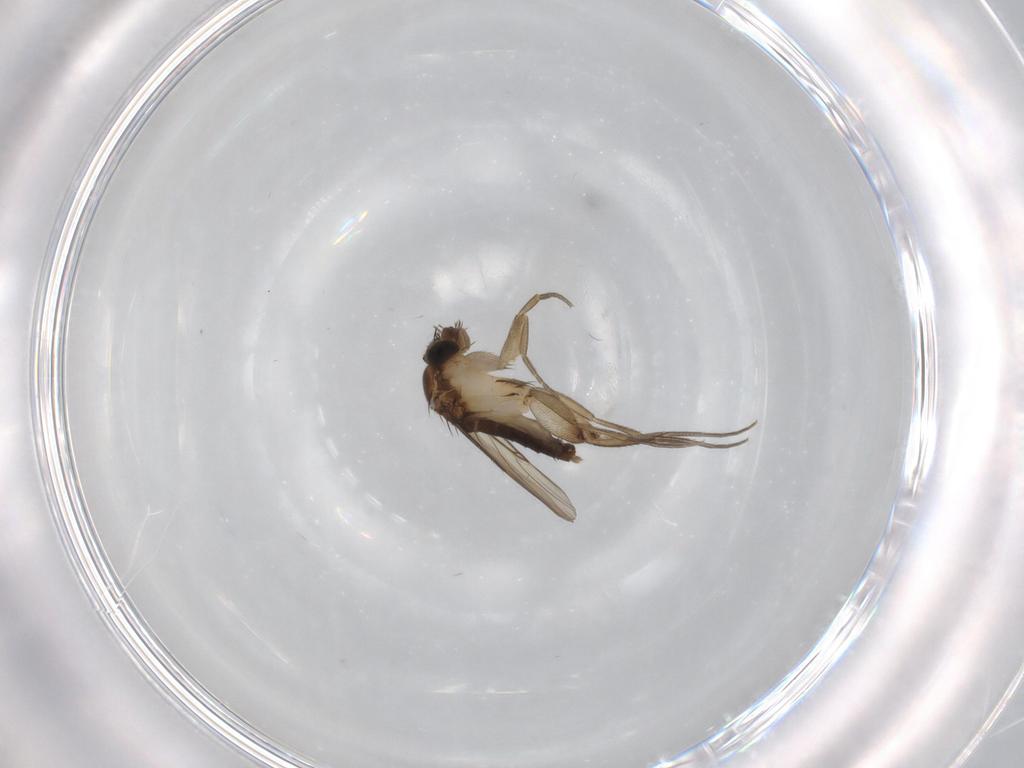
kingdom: Animalia
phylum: Arthropoda
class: Insecta
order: Diptera
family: Phoridae
